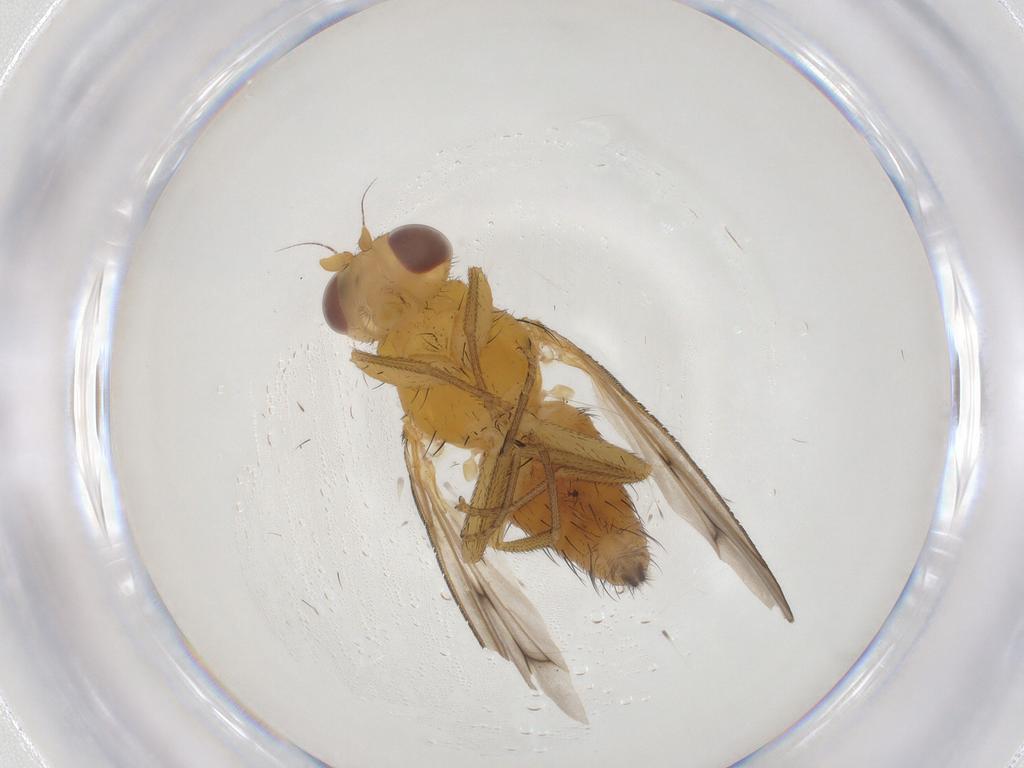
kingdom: Animalia
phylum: Arthropoda
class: Insecta
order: Diptera
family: Lauxaniidae
